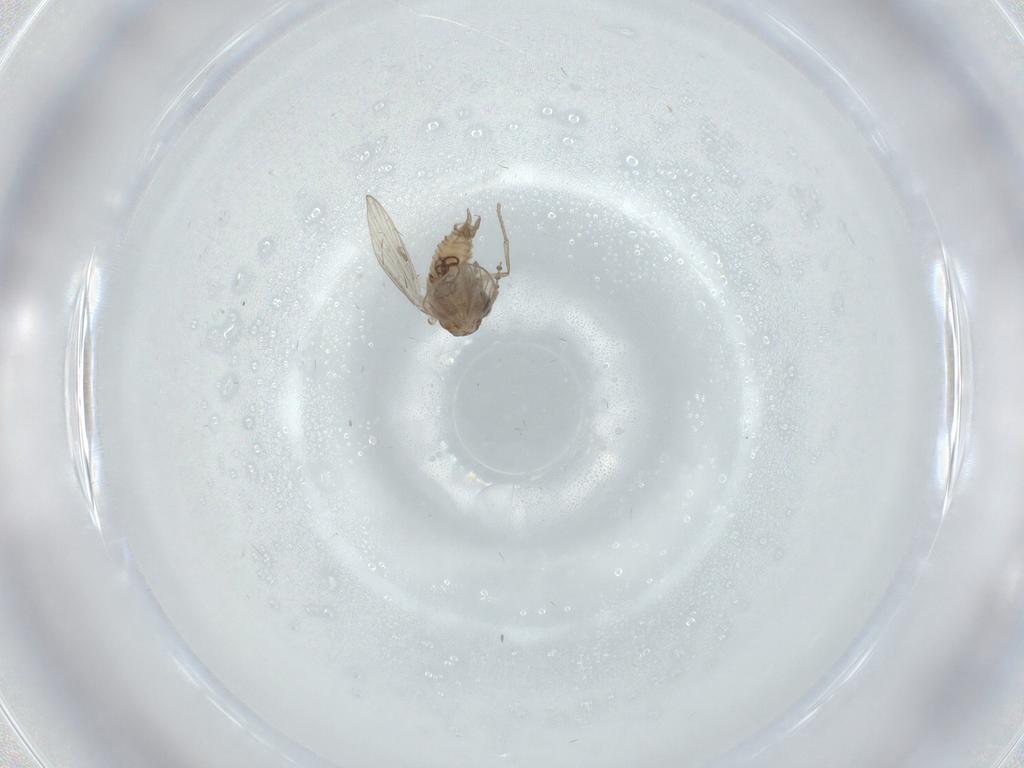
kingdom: Animalia
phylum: Arthropoda
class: Insecta
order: Diptera
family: Psychodidae
